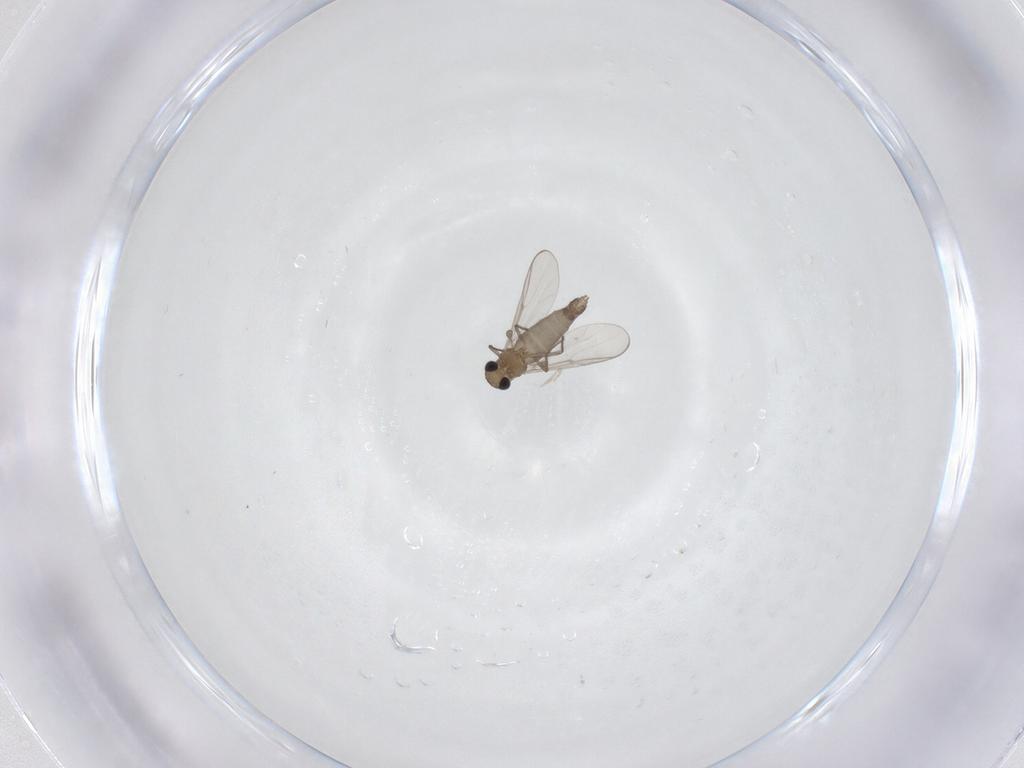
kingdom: Animalia
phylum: Arthropoda
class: Insecta
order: Diptera
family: Chironomidae
